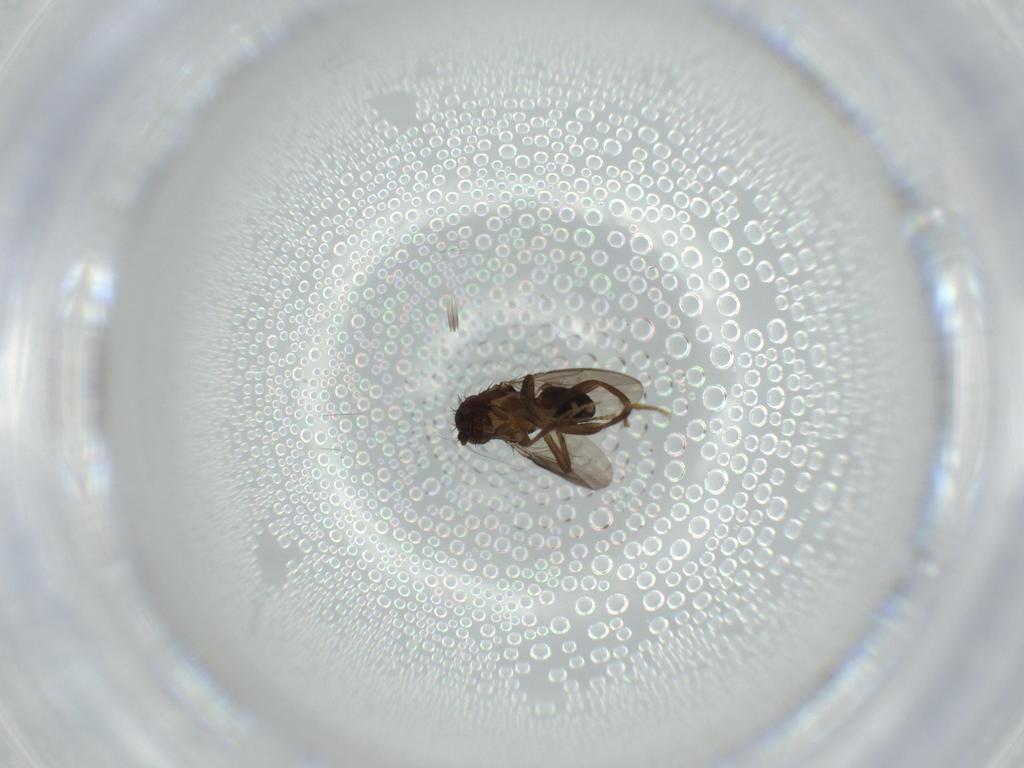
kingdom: Animalia
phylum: Arthropoda
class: Insecta
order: Diptera
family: Sphaeroceridae
